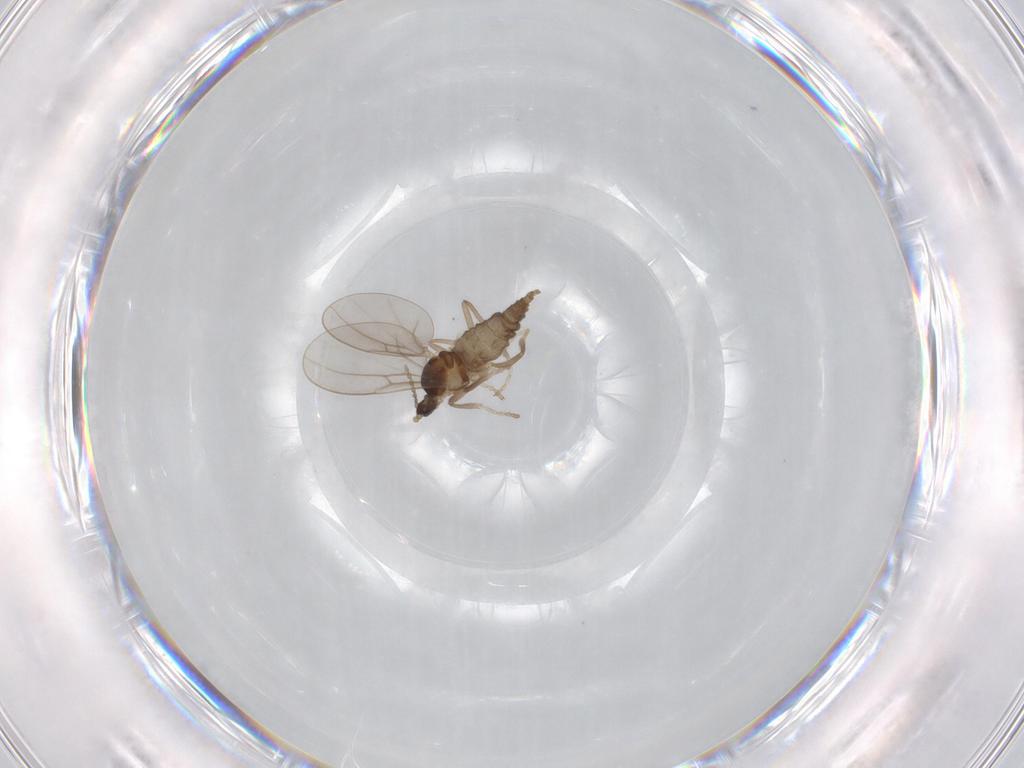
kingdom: Animalia
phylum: Arthropoda
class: Insecta
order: Diptera
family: Cecidomyiidae
